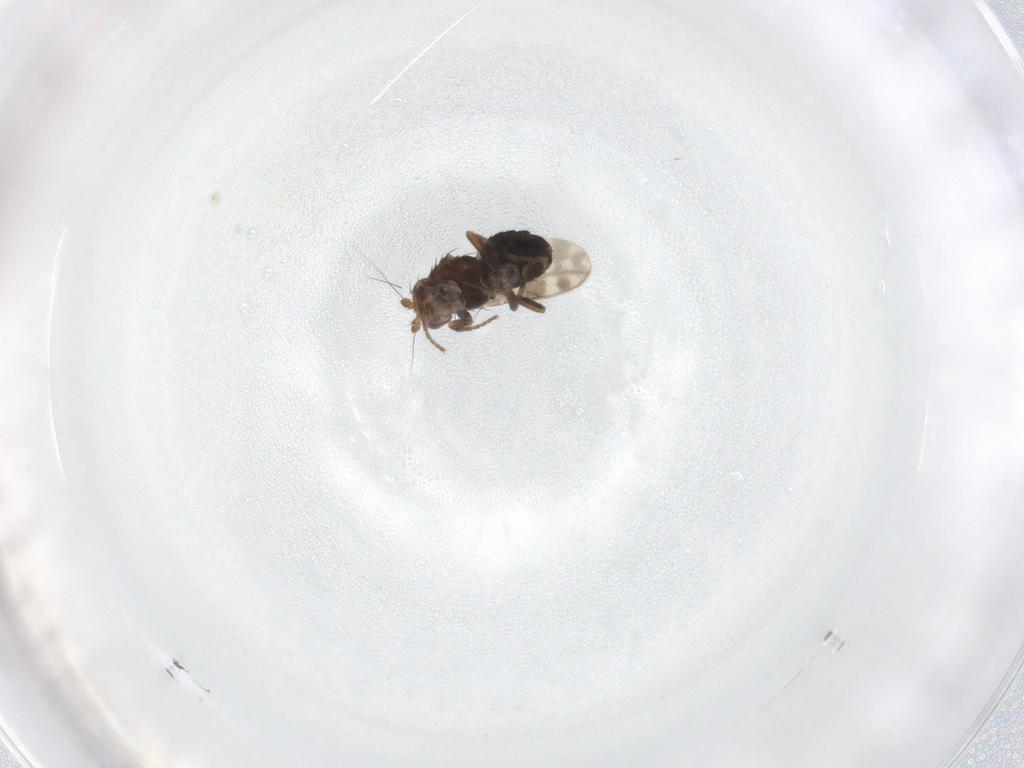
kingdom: Animalia
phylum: Arthropoda
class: Insecta
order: Diptera
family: Sphaeroceridae
